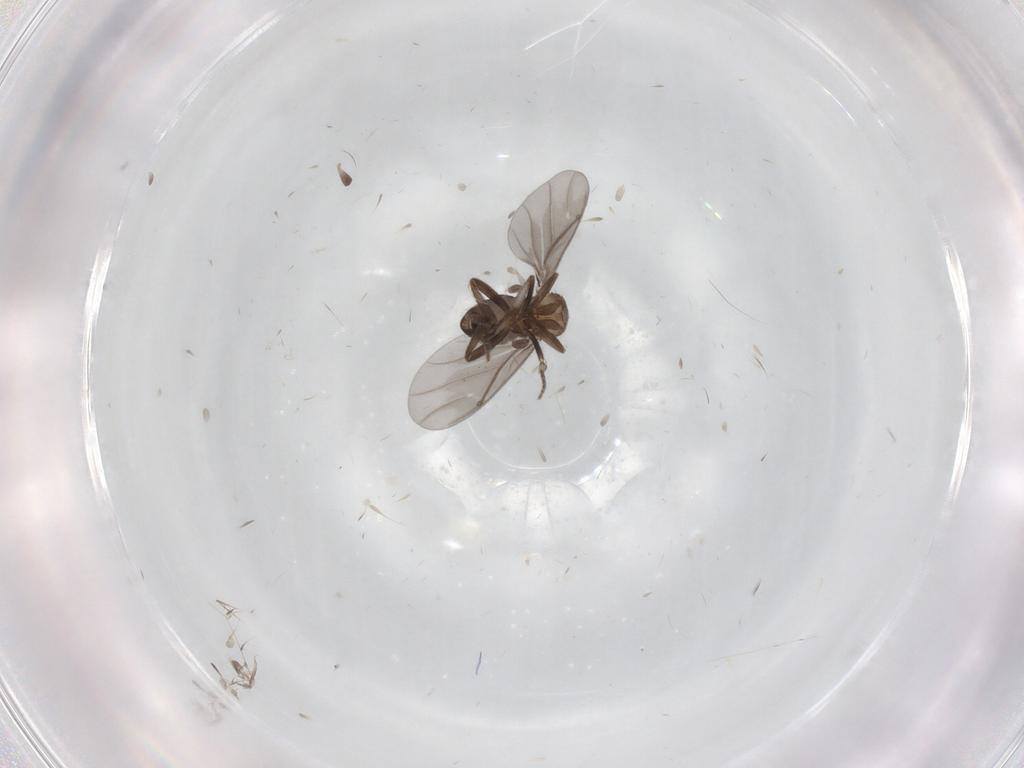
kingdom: Animalia
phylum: Arthropoda
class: Insecta
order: Diptera
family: Phoridae
